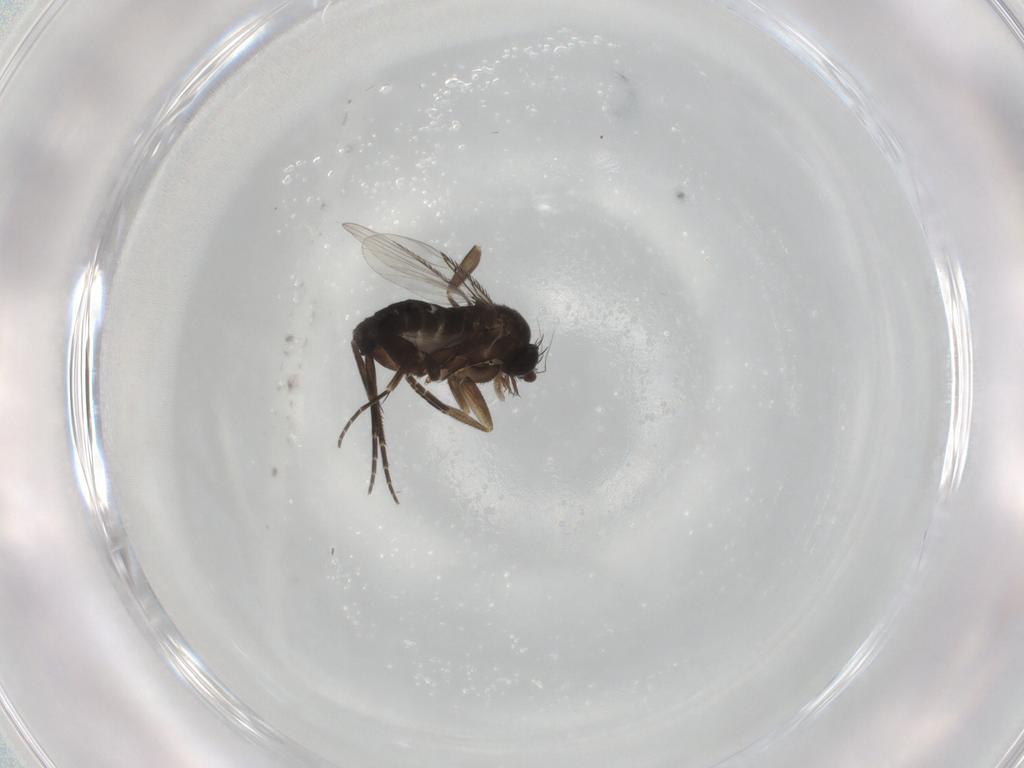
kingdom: Animalia
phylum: Arthropoda
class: Insecta
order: Diptera
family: Phoridae
